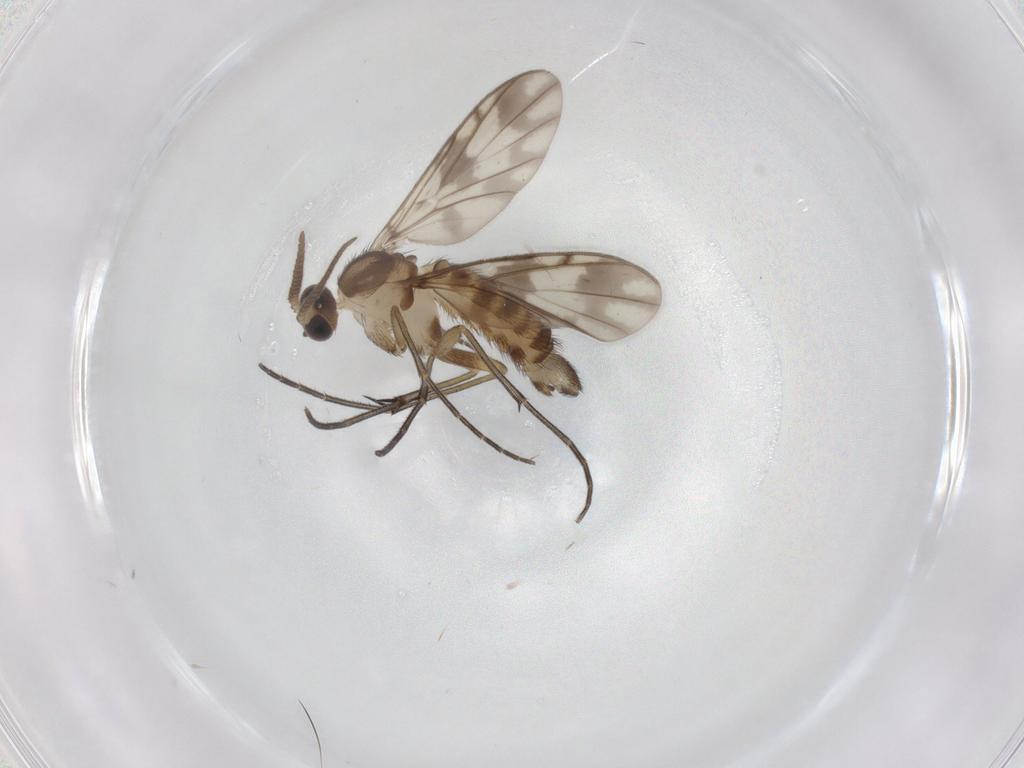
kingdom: Animalia
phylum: Arthropoda
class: Insecta
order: Diptera
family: Keroplatidae
